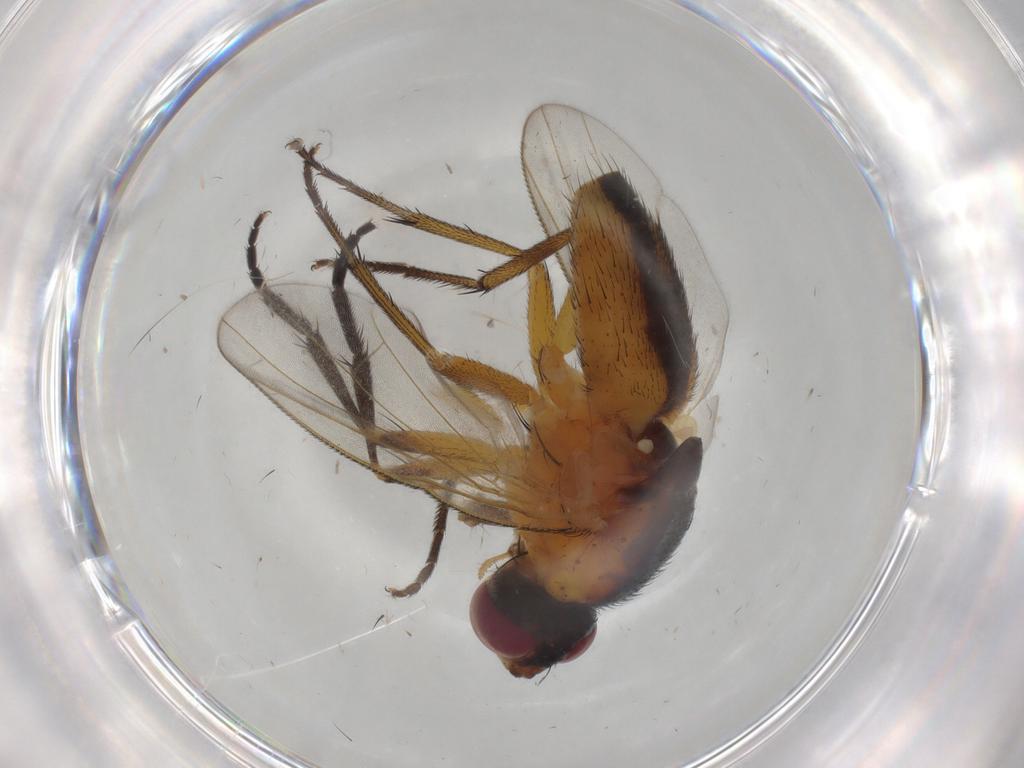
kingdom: Animalia
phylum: Arthropoda
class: Insecta
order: Diptera
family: Muscidae
